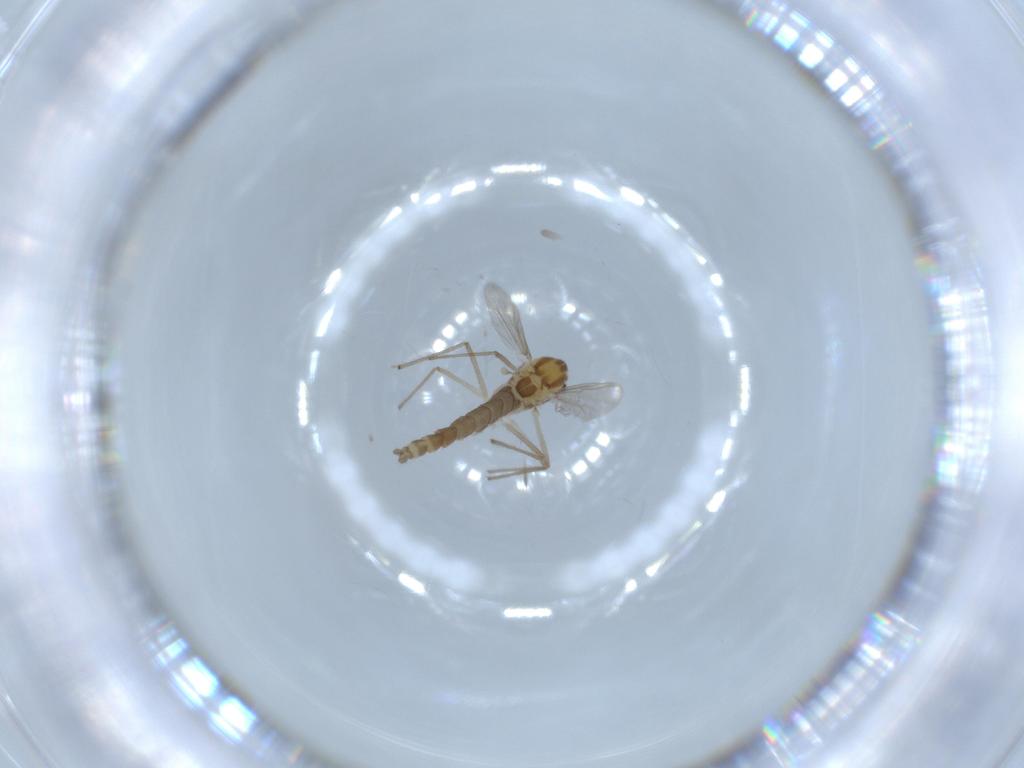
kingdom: Animalia
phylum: Arthropoda
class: Insecta
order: Diptera
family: Chironomidae
